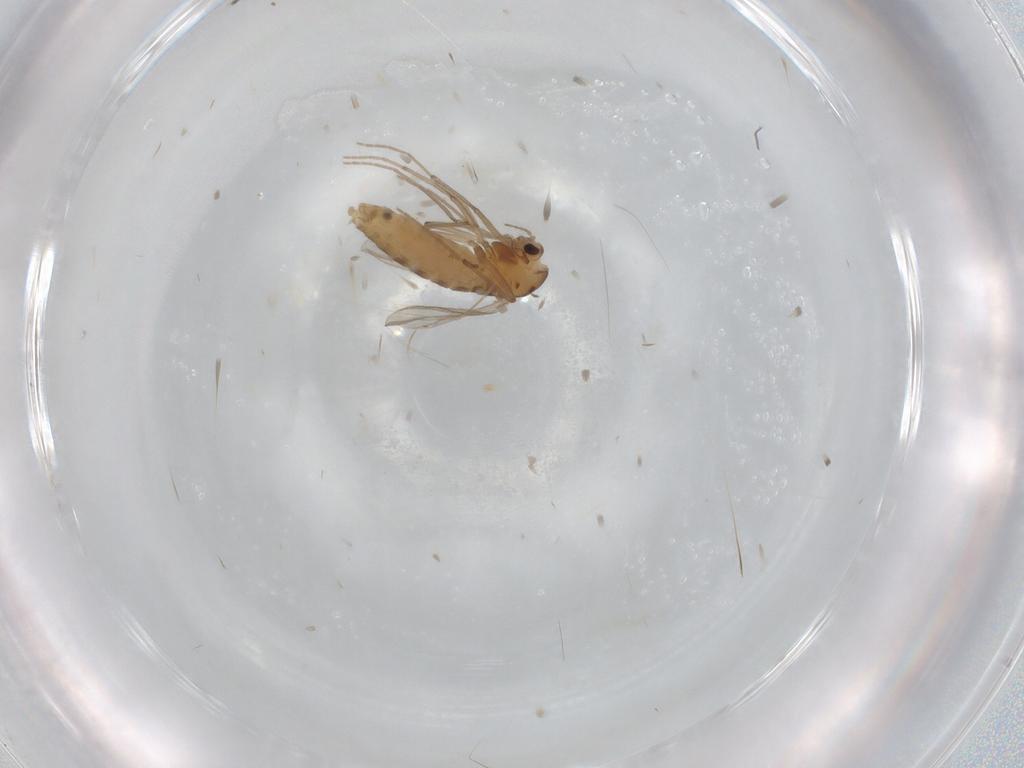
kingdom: Animalia
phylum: Arthropoda
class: Insecta
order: Diptera
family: Chironomidae
